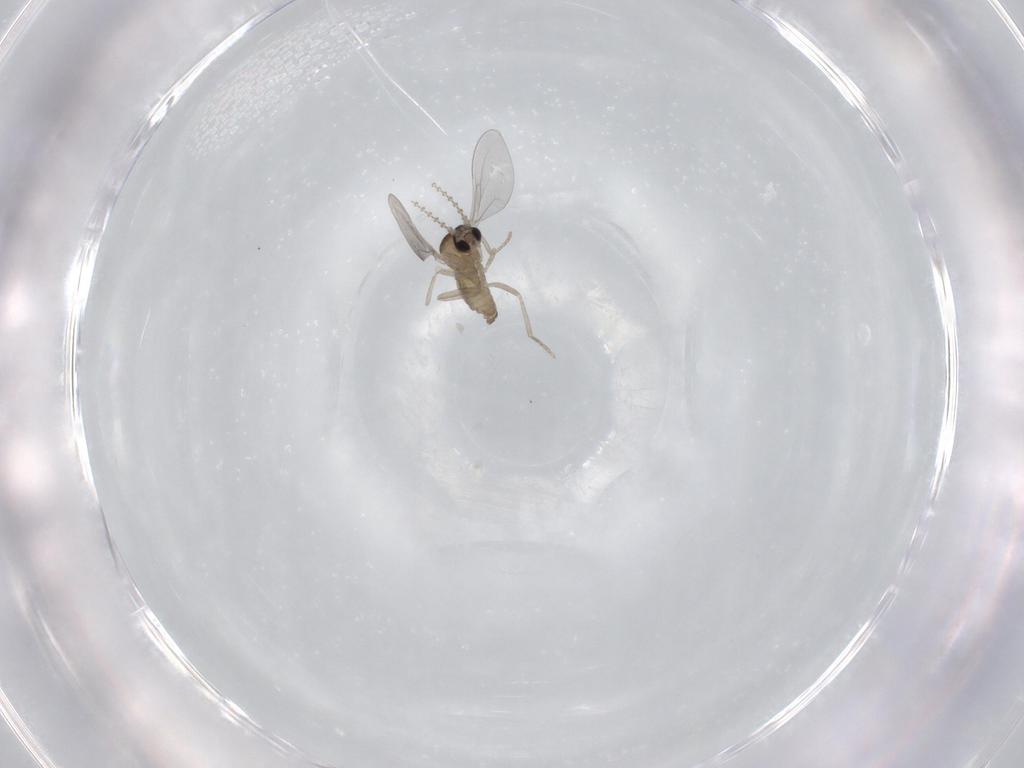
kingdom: Animalia
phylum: Arthropoda
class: Insecta
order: Diptera
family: Cecidomyiidae
